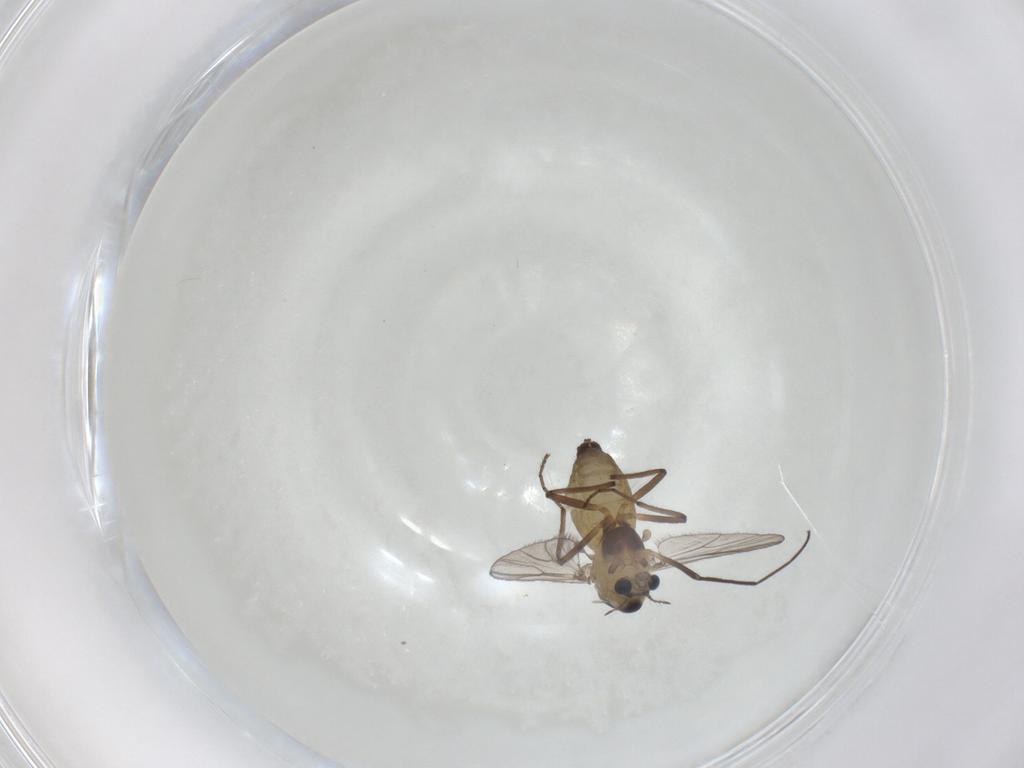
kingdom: Animalia
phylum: Arthropoda
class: Insecta
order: Diptera
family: Chironomidae
